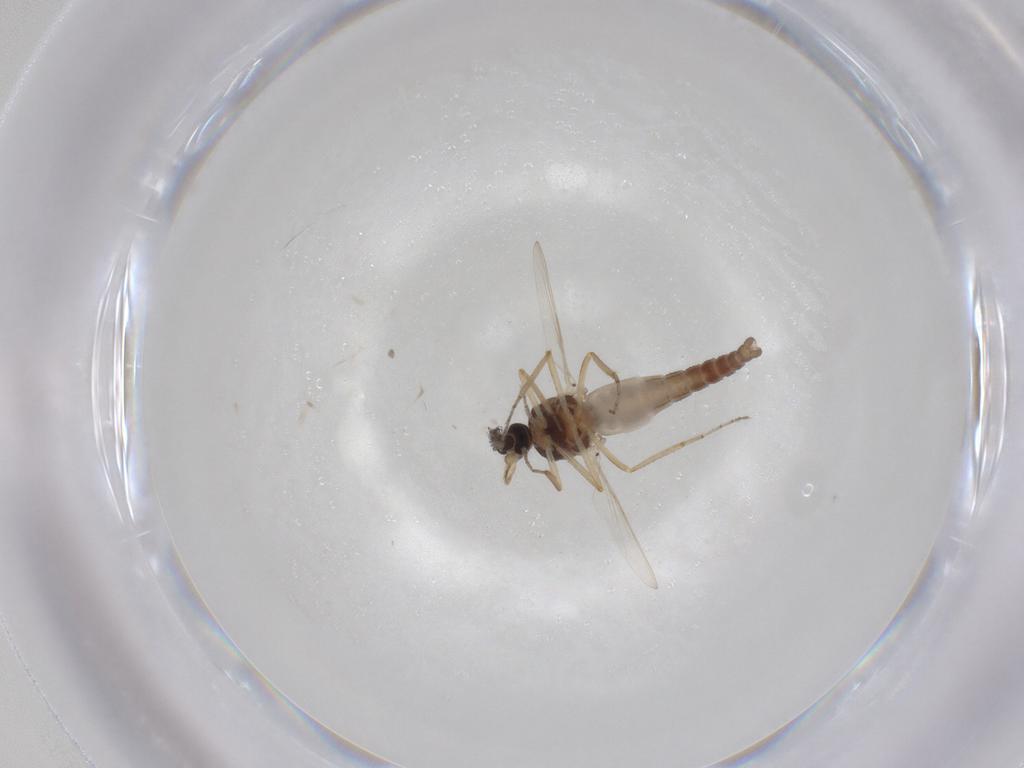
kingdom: Animalia
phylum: Arthropoda
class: Insecta
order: Diptera
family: Ceratopogonidae
